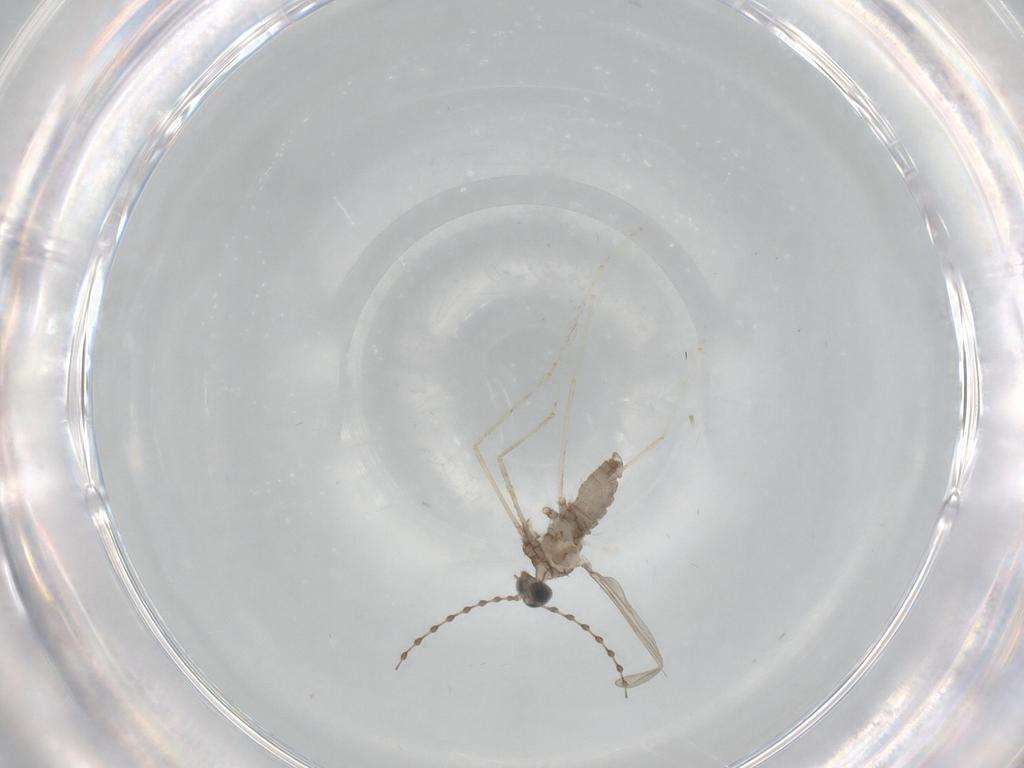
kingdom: Animalia
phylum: Arthropoda
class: Insecta
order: Diptera
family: Cecidomyiidae
